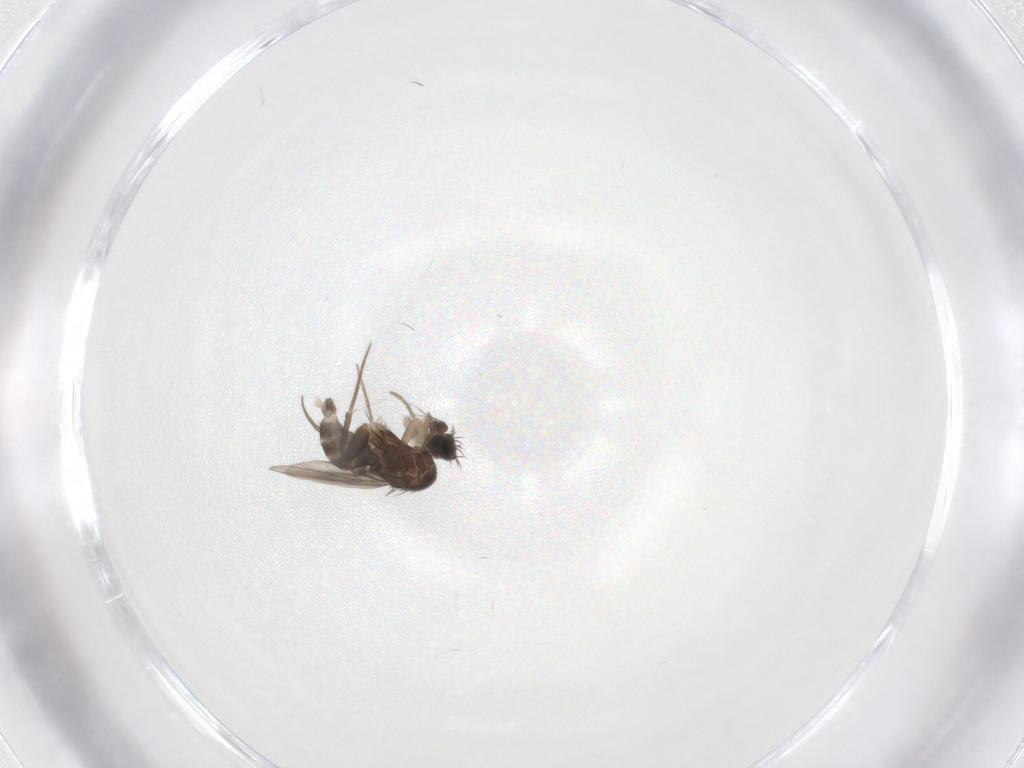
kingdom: Animalia
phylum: Arthropoda
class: Insecta
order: Diptera
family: Phoridae
